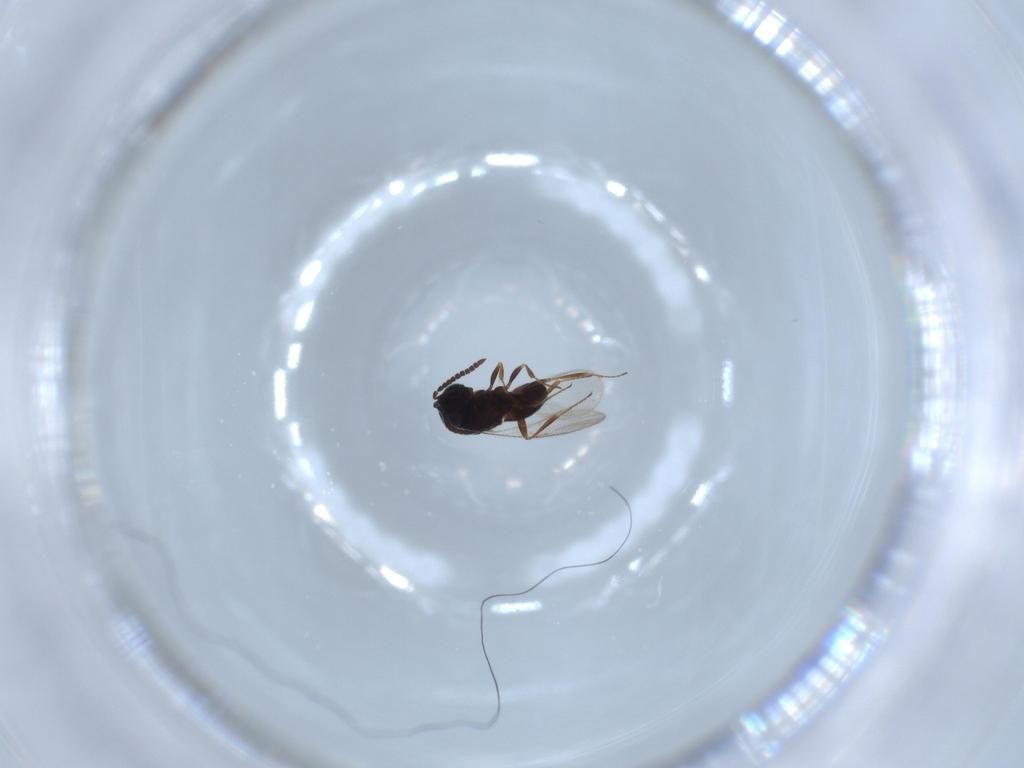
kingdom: Animalia
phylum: Arthropoda
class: Insecta
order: Hymenoptera
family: Scelionidae
